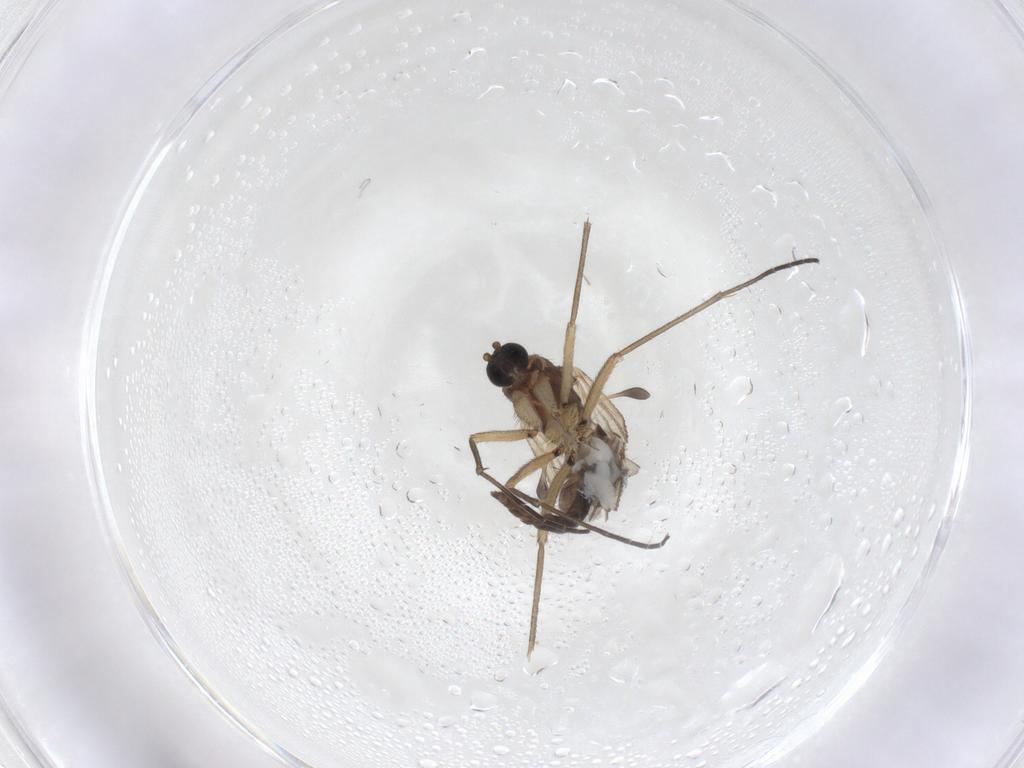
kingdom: Animalia
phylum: Arthropoda
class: Insecta
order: Diptera
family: Sciaridae
